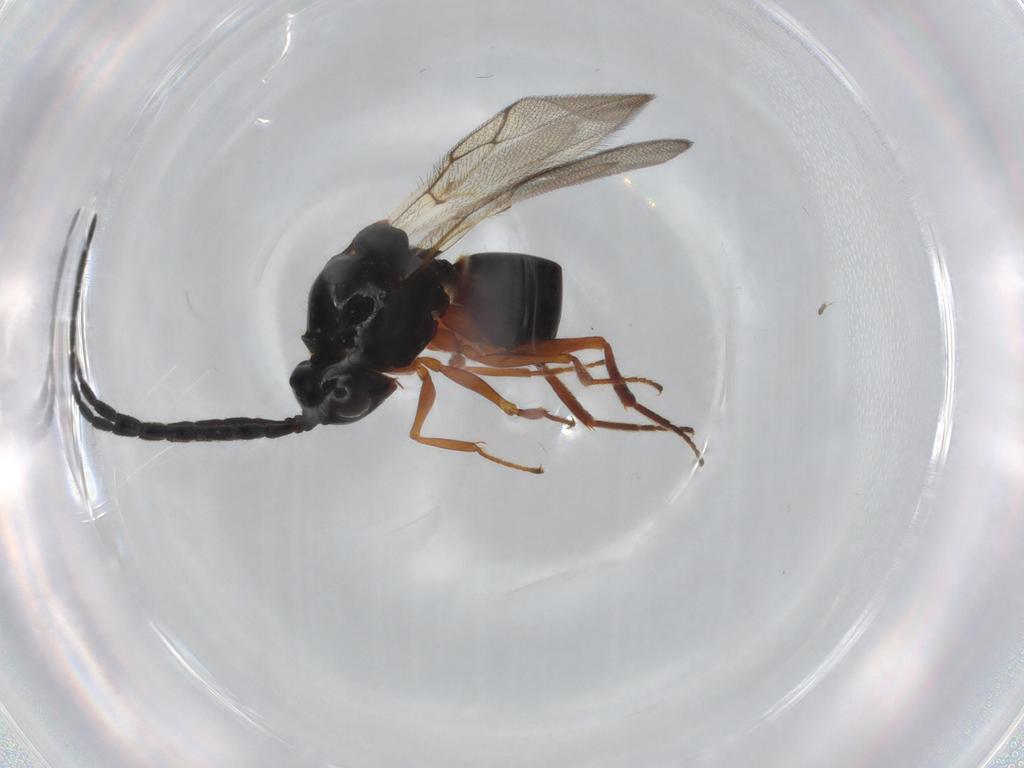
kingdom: Animalia
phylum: Arthropoda
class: Insecta
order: Hymenoptera
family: Figitidae
